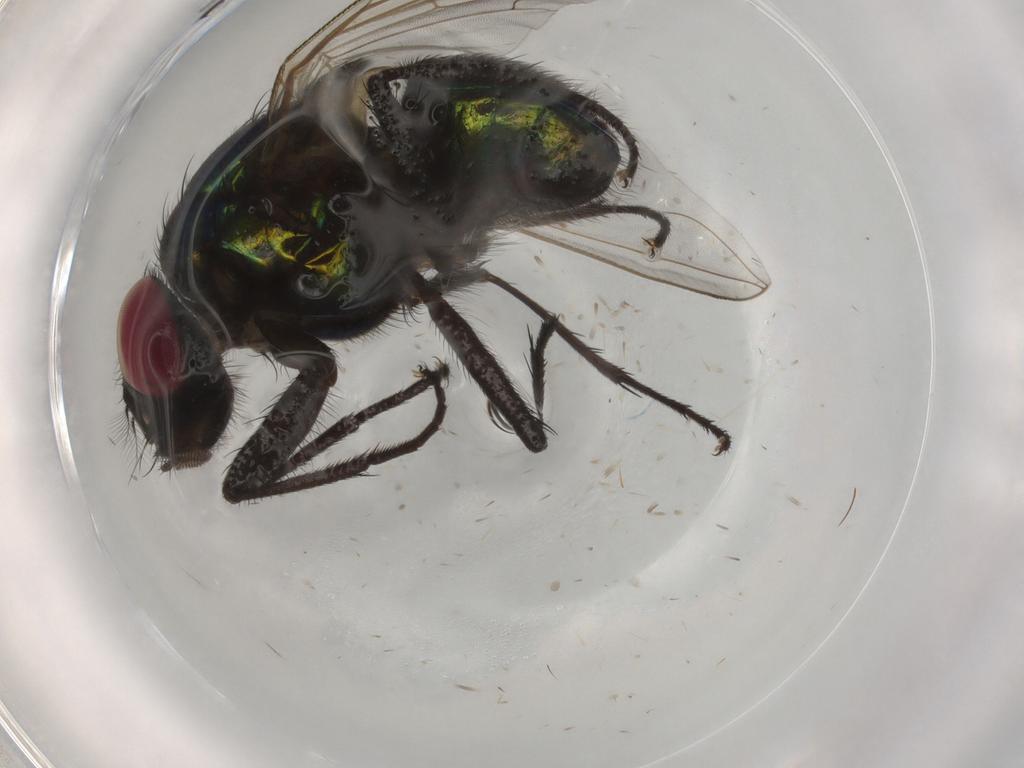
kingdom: Animalia
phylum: Arthropoda
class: Insecta
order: Diptera
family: Muscidae
